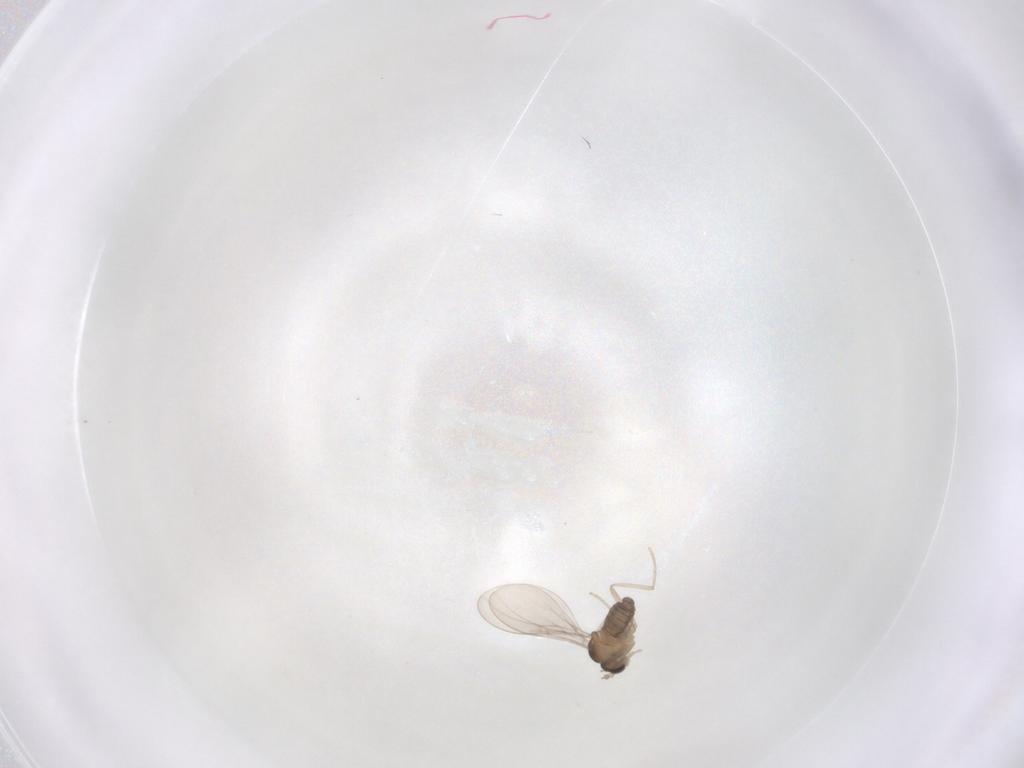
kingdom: Animalia
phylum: Arthropoda
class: Insecta
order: Diptera
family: Cecidomyiidae
